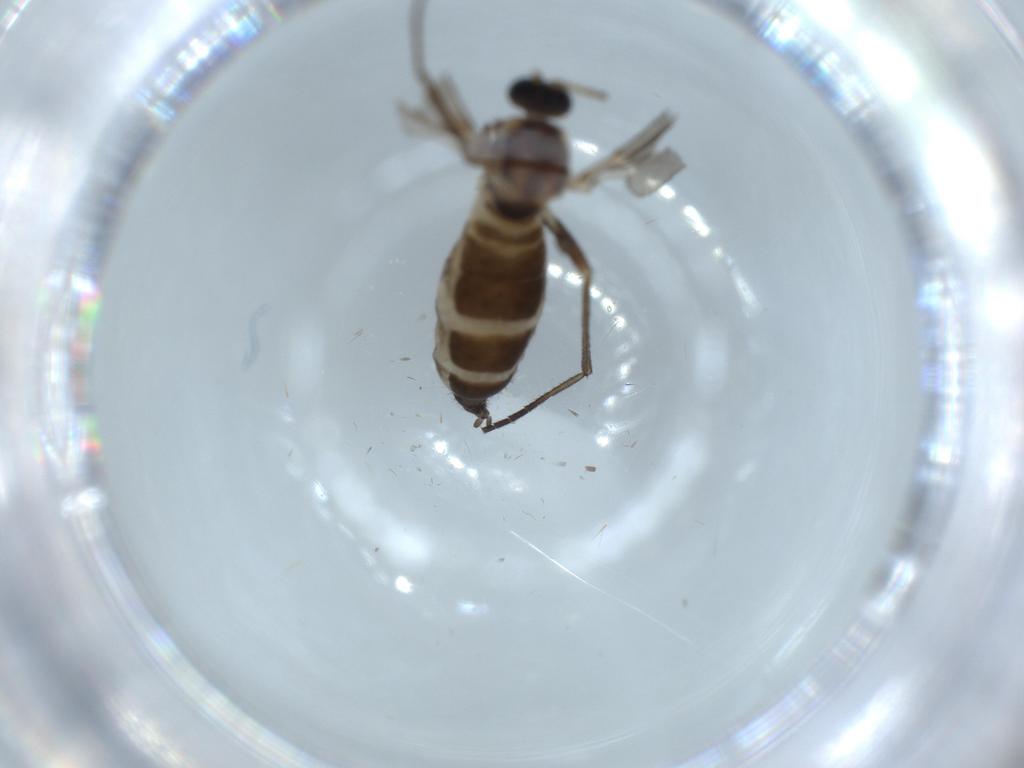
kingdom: Animalia
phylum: Arthropoda
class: Insecta
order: Diptera
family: Sciaridae
